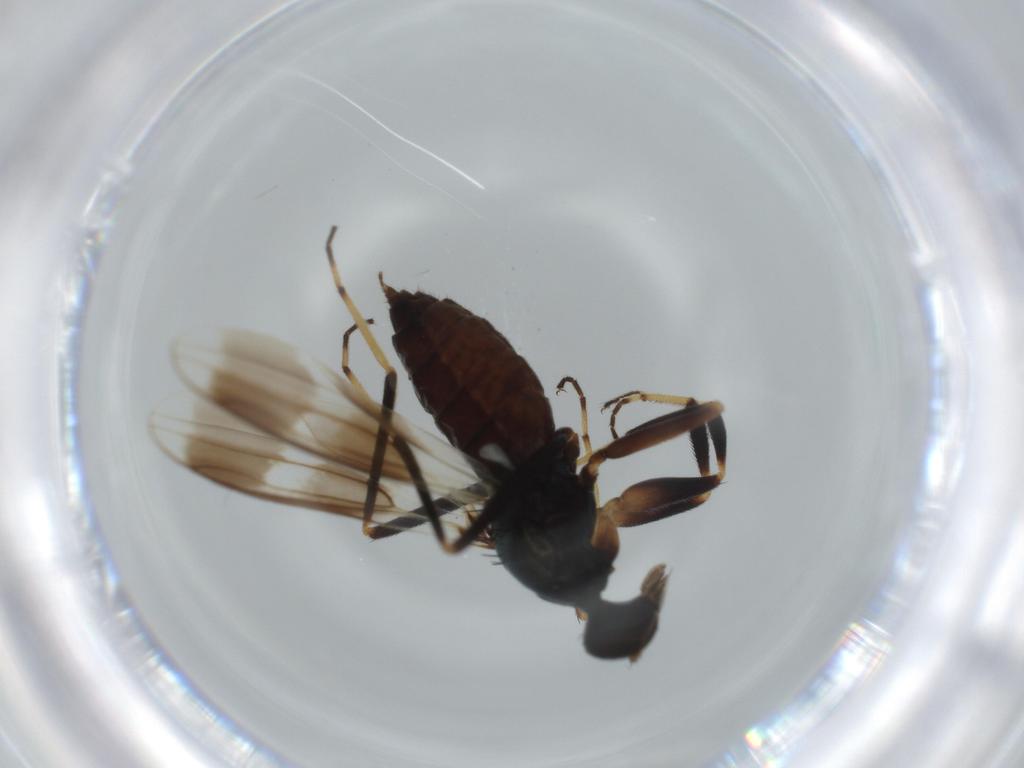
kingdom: Animalia
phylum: Arthropoda
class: Insecta
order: Diptera
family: Hybotidae
